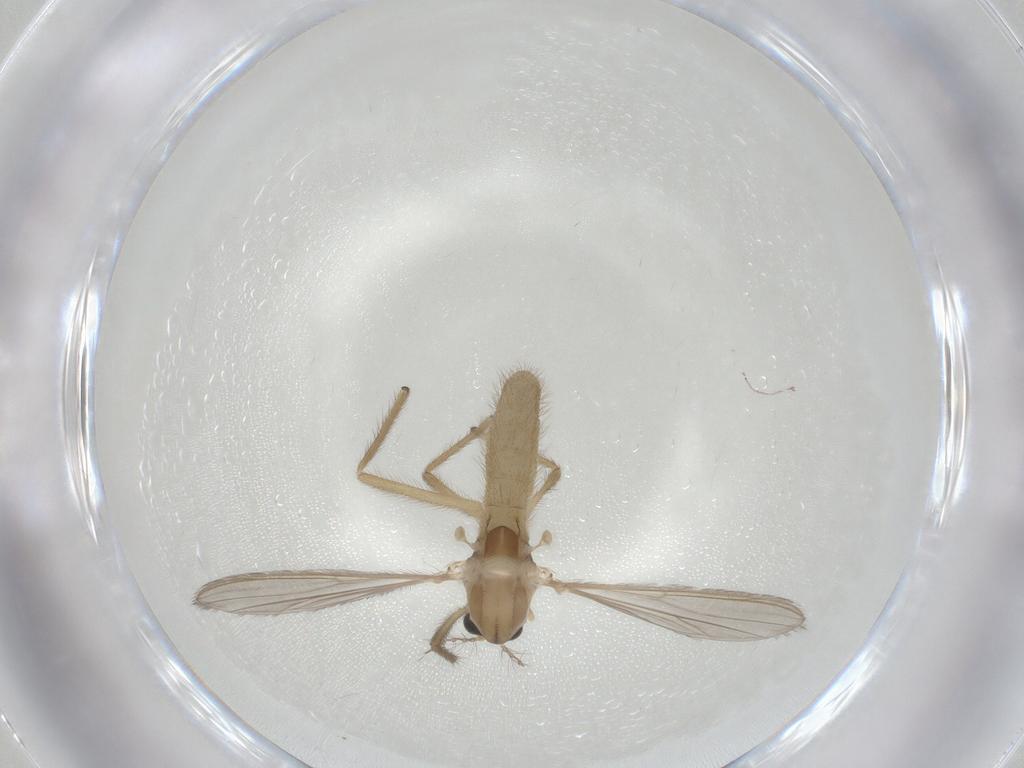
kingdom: Animalia
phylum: Arthropoda
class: Insecta
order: Diptera
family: Chironomidae
